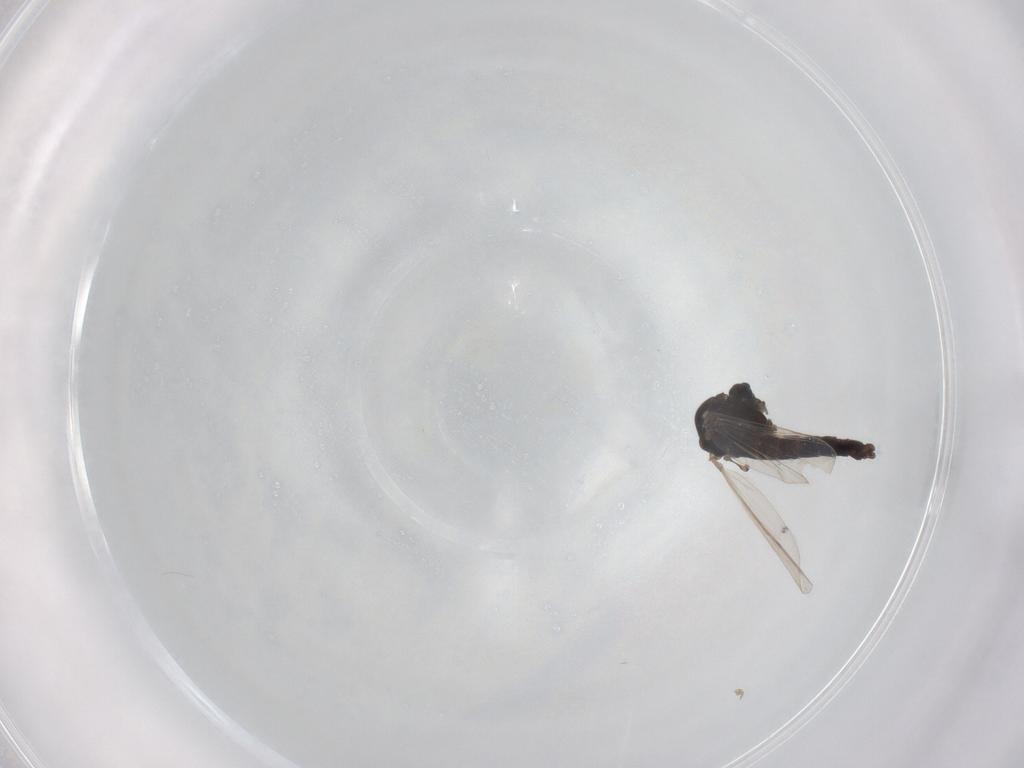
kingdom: Animalia
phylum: Arthropoda
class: Insecta
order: Diptera
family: Chironomidae
